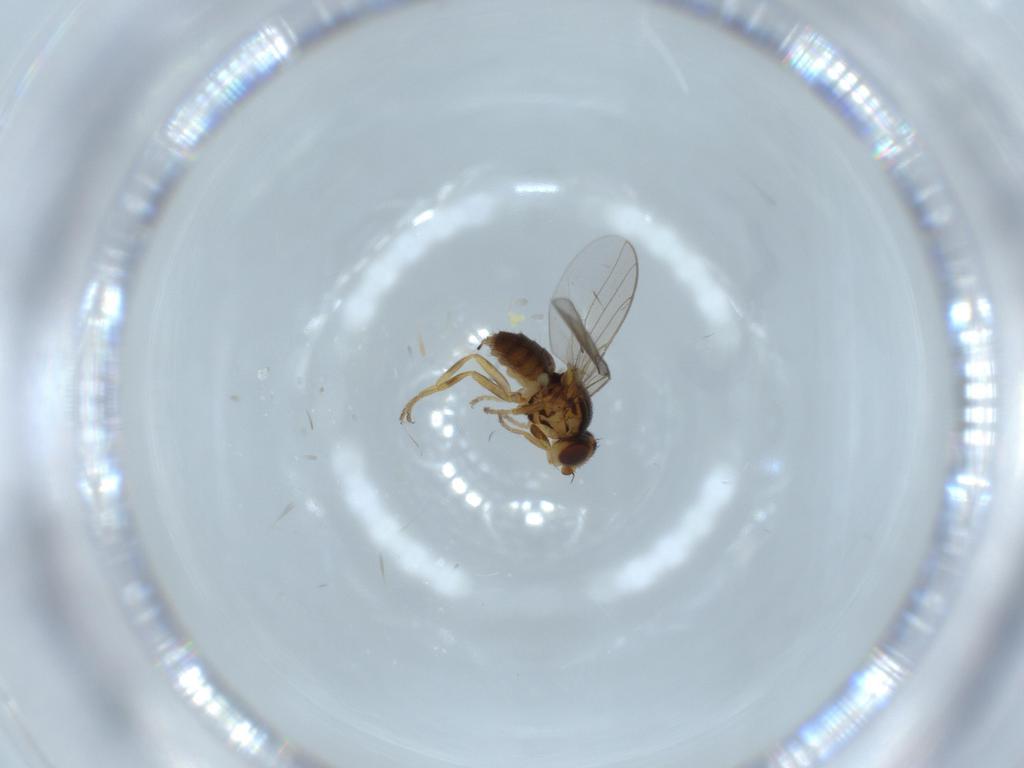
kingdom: Animalia
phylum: Arthropoda
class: Insecta
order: Diptera
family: Chloropidae
